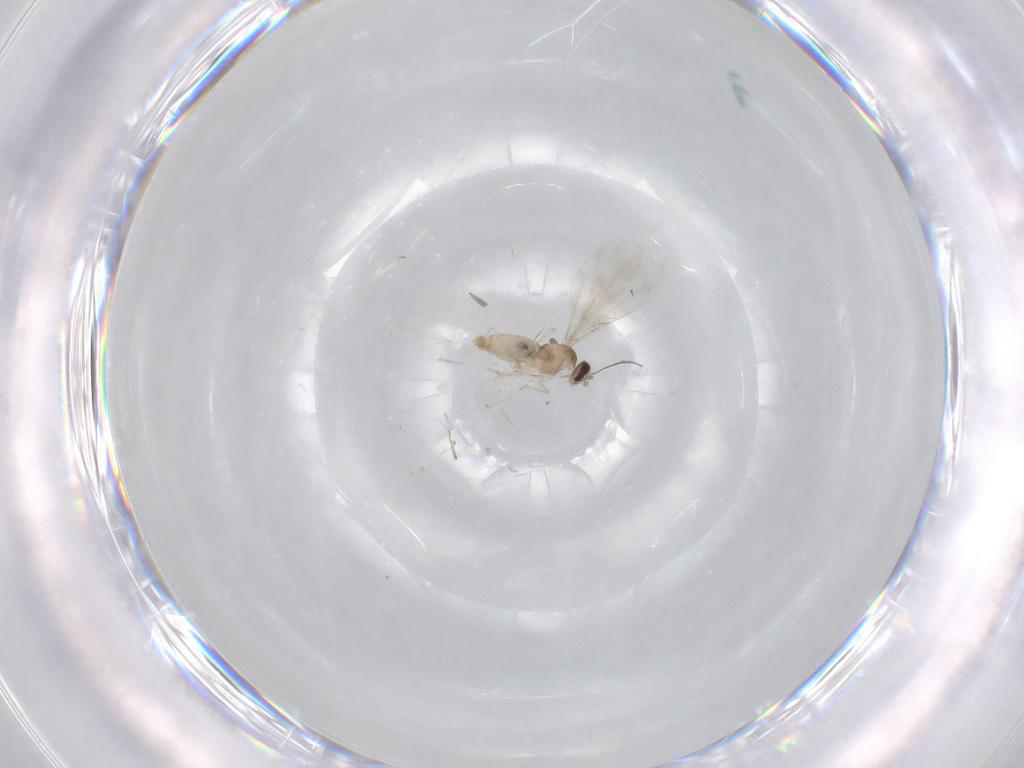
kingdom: Animalia
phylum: Arthropoda
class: Insecta
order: Diptera
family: Cecidomyiidae
